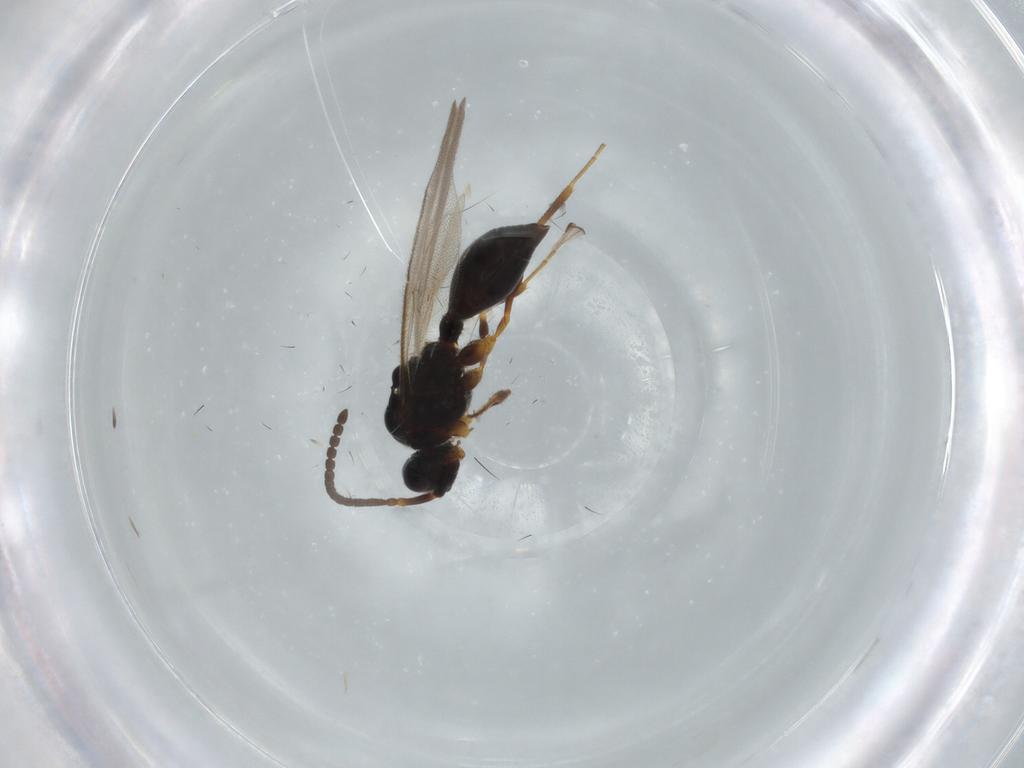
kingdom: Animalia
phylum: Arthropoda
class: Insecta
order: Hymenoptera
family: Diapriidae
